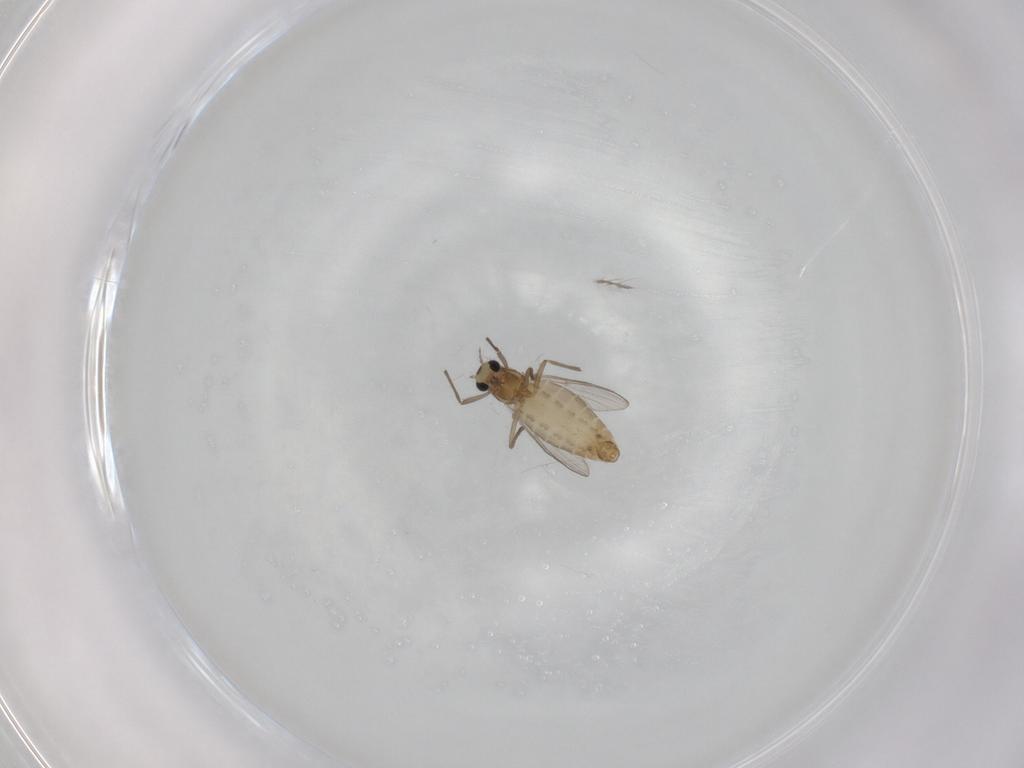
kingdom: Animalia
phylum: Arthropoda
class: Insecta
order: Diptera
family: Chironomidae
